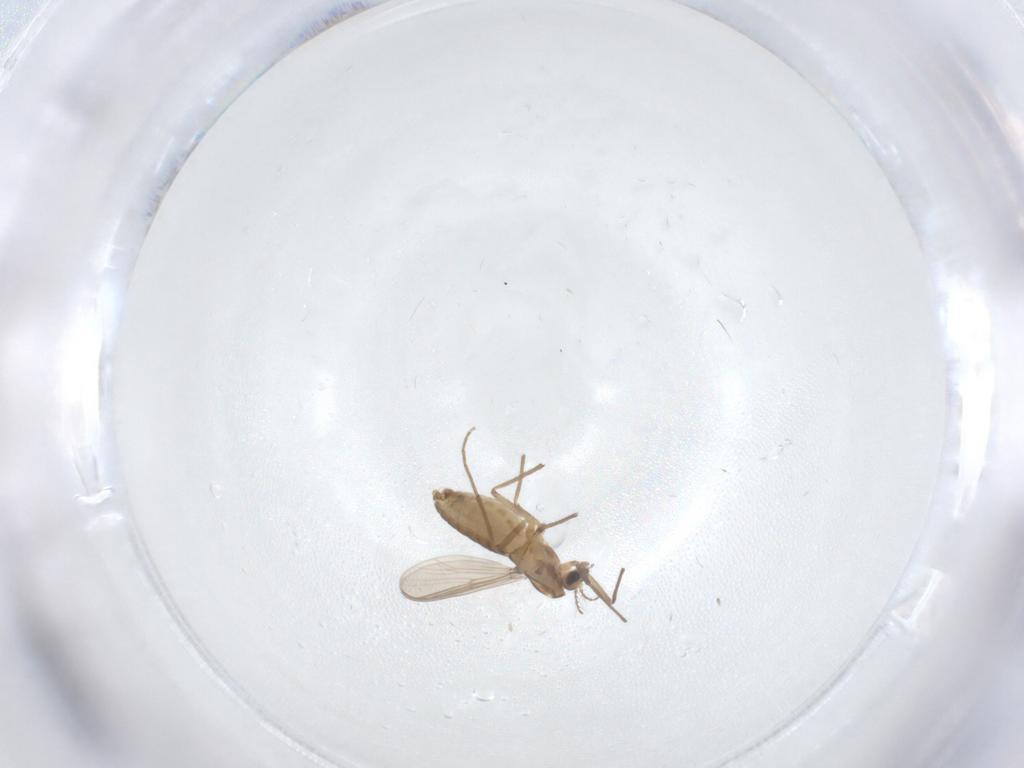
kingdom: Animalia
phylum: Arthropoda
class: Insecta
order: Diptera
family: Chironomidae
